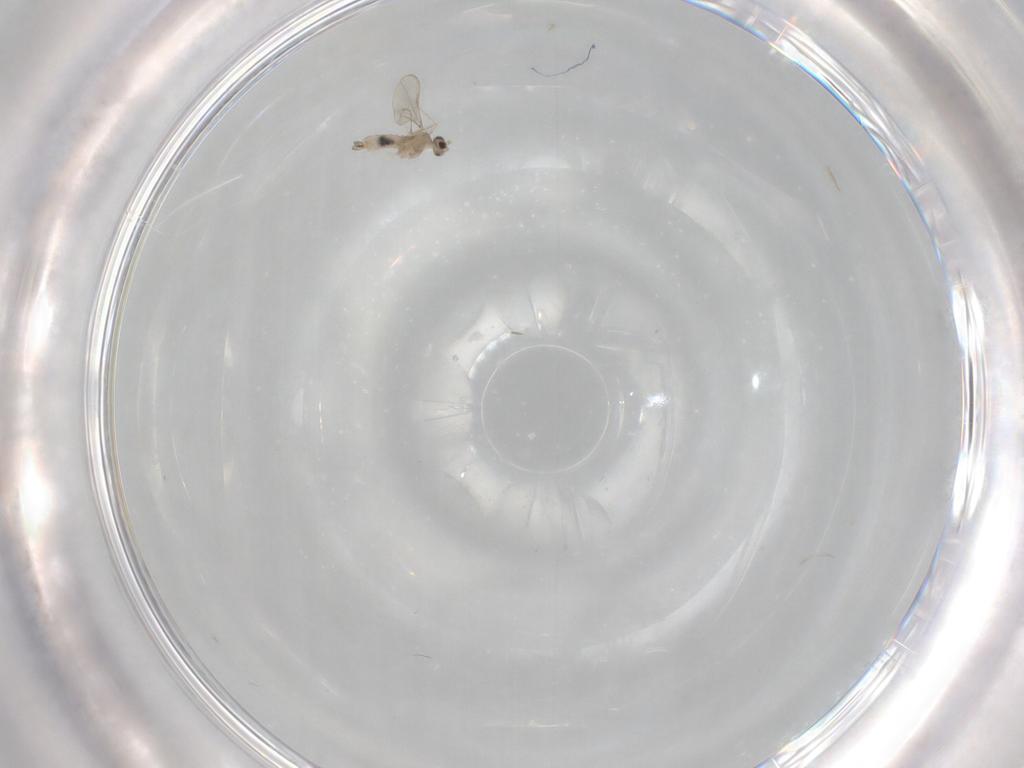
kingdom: Animalia
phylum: Arthropoda
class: Insecta
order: Diptera
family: Cecidomyiidae
